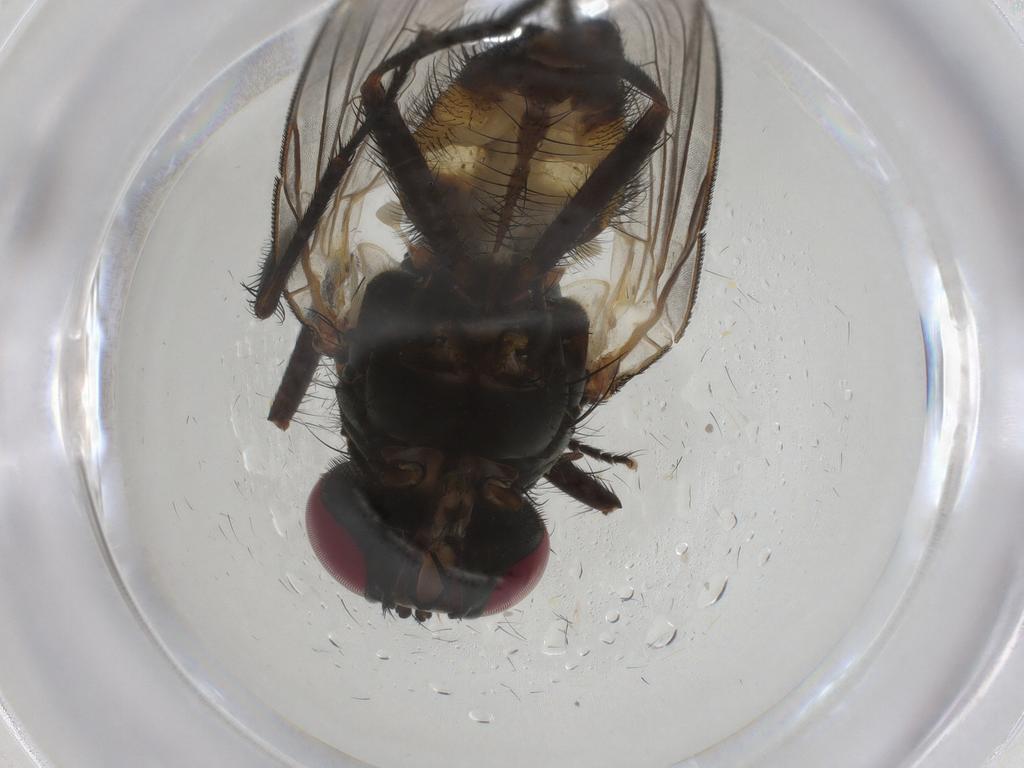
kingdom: Animalia
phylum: Arthropoda
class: Insecta
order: Diptera
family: Fannia
